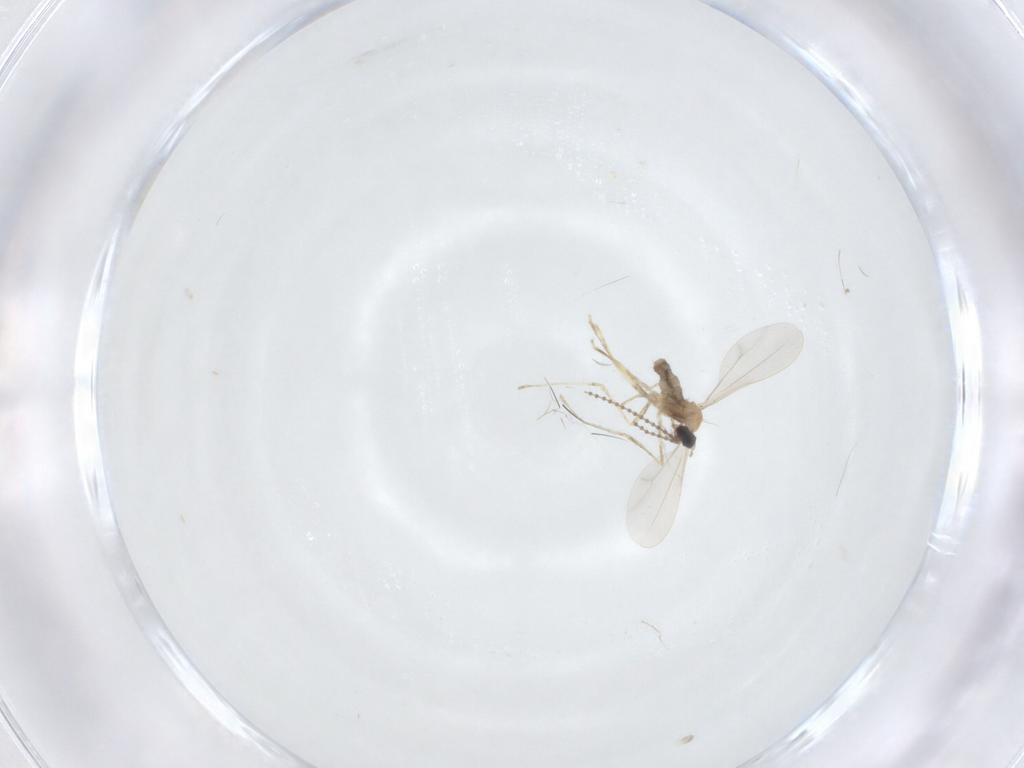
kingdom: Animalia
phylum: Arthropoda
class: Insecta
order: Diptera
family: Cecidomyiidae
